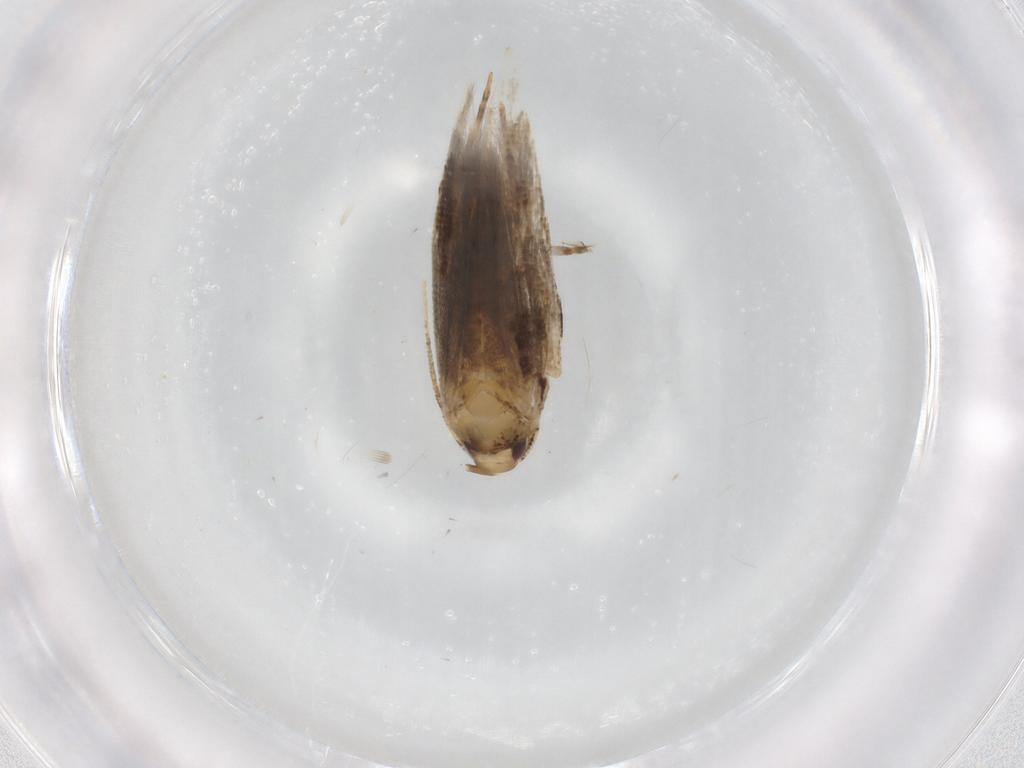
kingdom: Animalia
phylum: Arthropoda
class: Insecta
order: Lepidoptera
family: Cosmopterigidae
